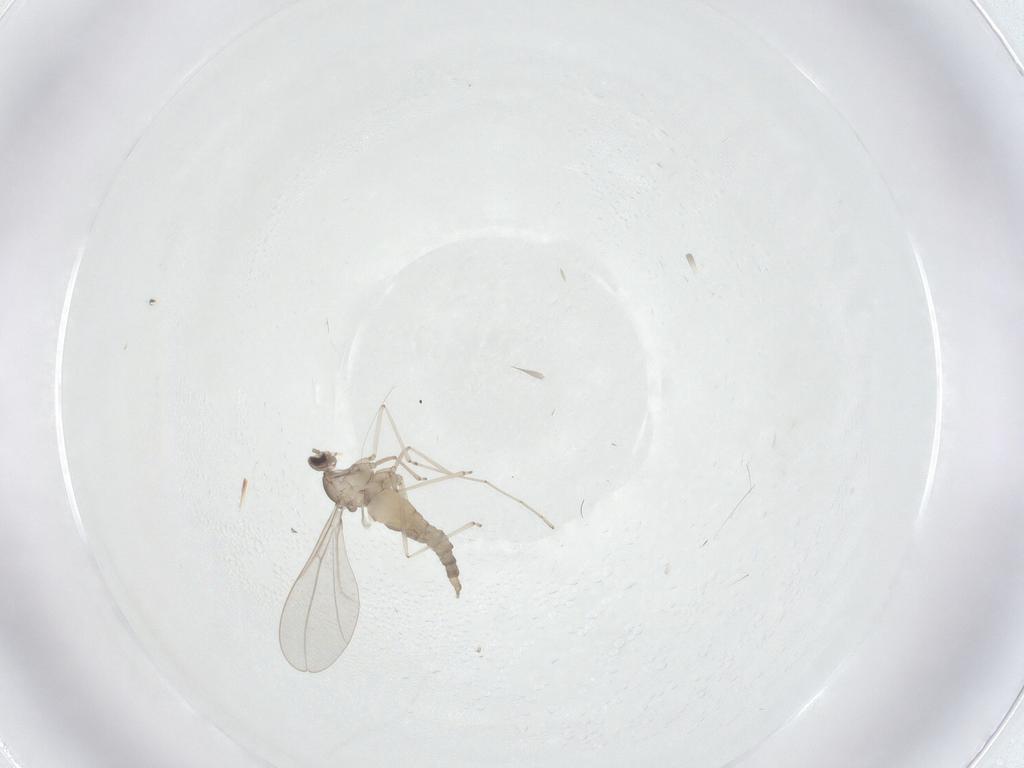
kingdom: Animalia
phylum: Arthropoda
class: Insecta
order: Diptera
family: Cecidomyiidae
